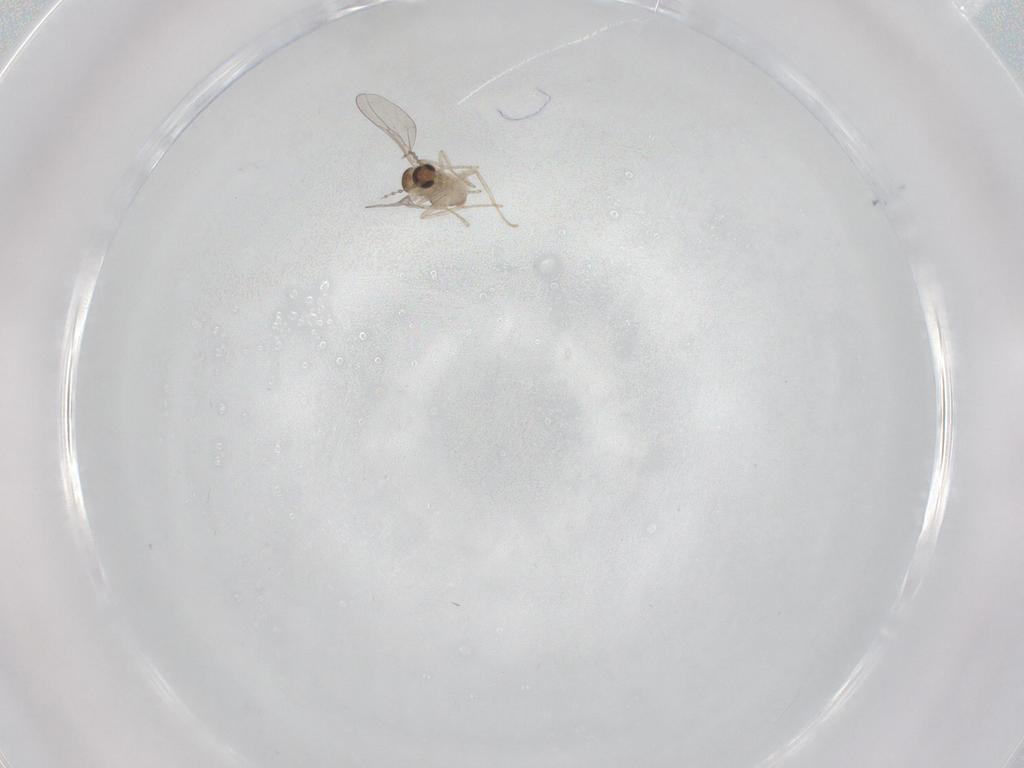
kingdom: Animalia
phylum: Arthropoda
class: Insecta
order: Diptera
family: Cecidomyiidae
